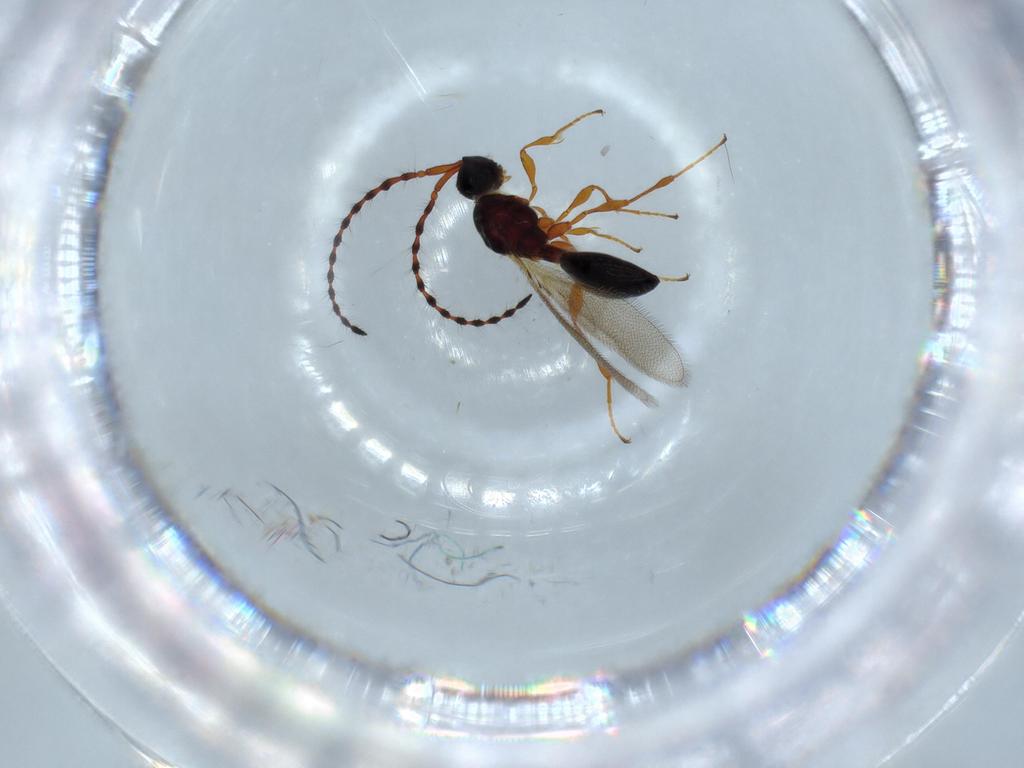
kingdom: Animalia
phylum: Arthropoda
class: Insecta
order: Hymenoptera
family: Diapriidae
